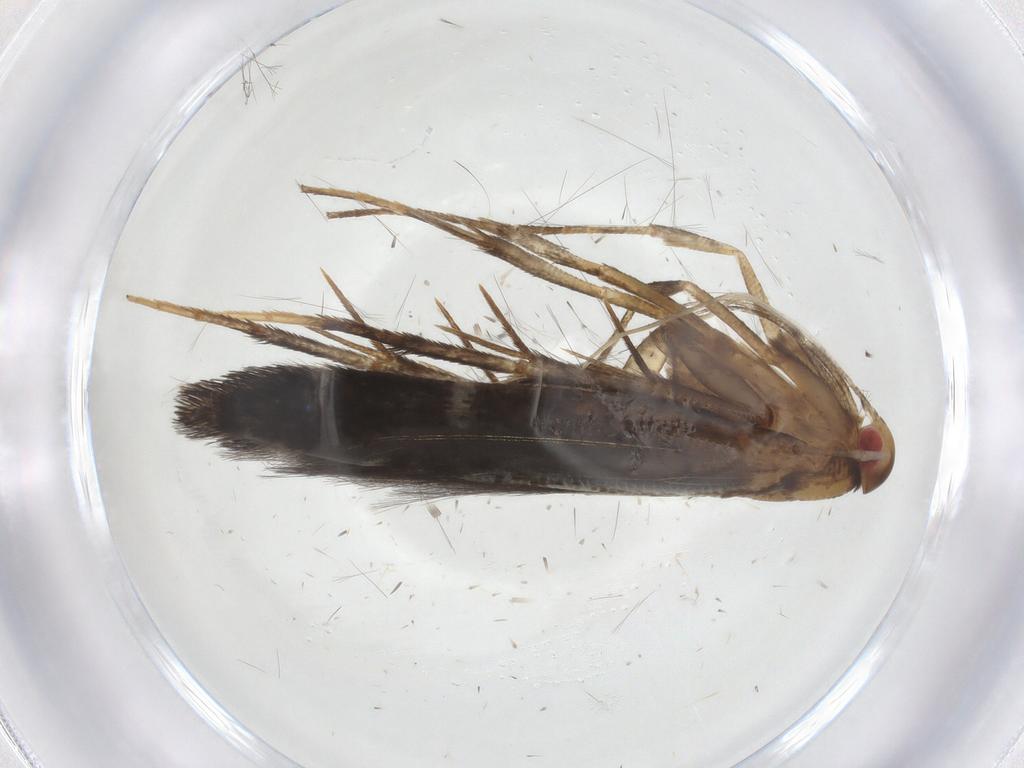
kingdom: Animalia
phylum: Arthropoda
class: Insecta
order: Lepidoptera
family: Cosmopterigidae
